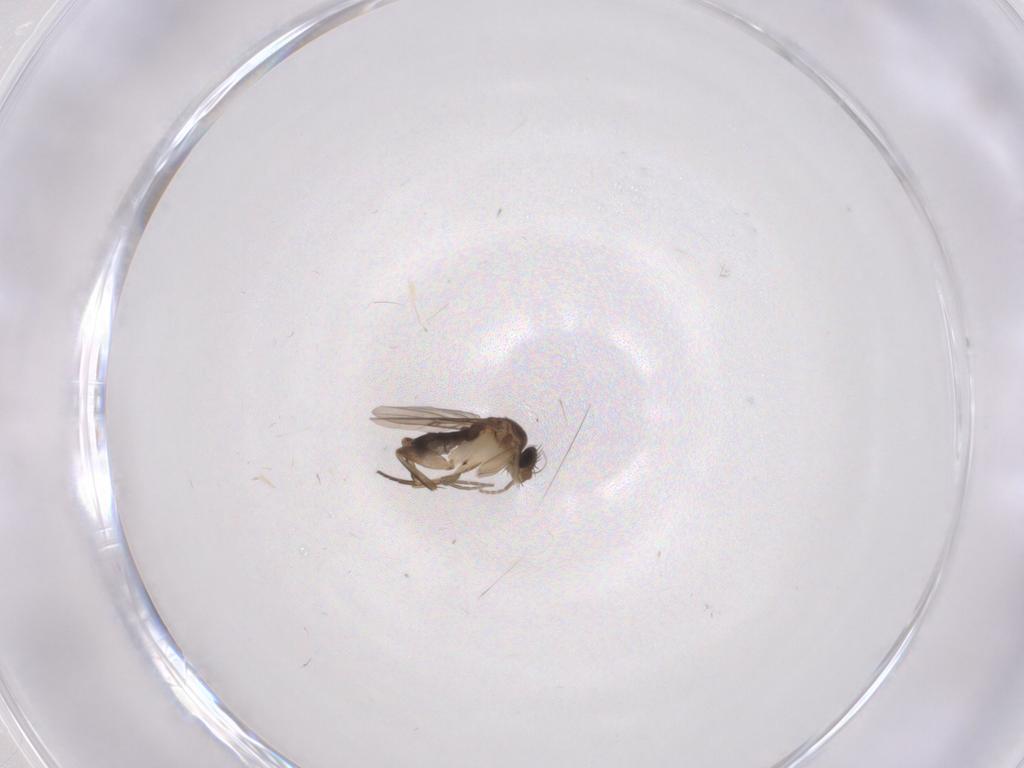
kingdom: Animalia
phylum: Arthropoda
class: Insecta
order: Diptera
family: Phoridae
